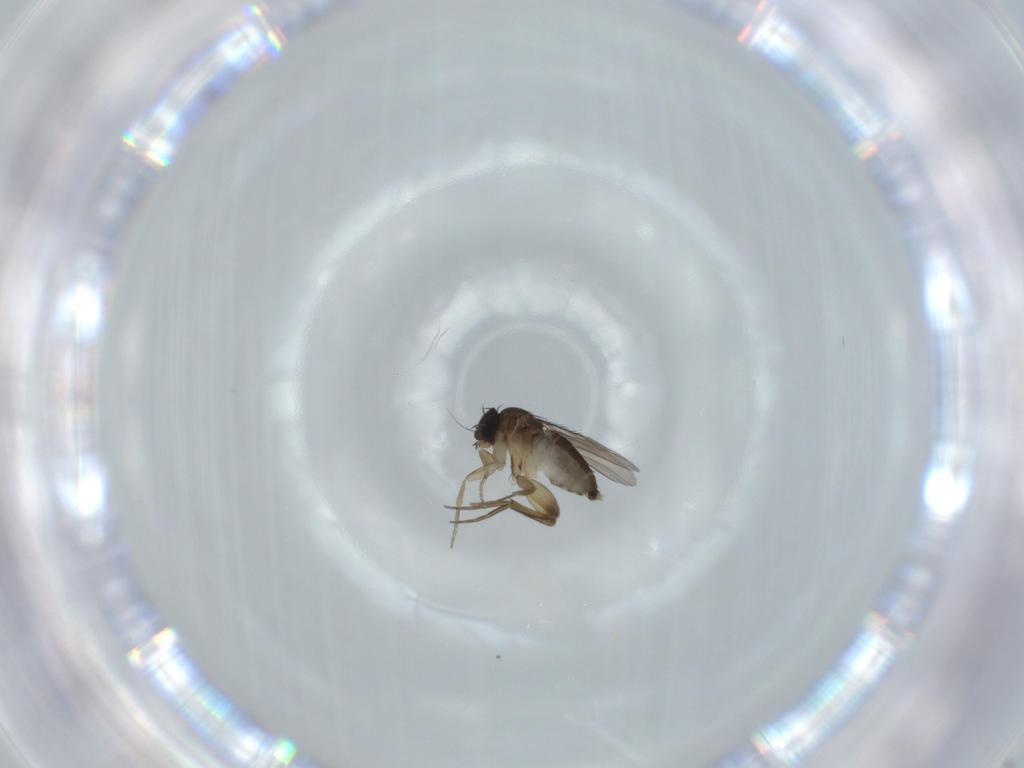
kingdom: Animalia
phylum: Arthropoda
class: Insecta
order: Diptera
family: Phoridae
